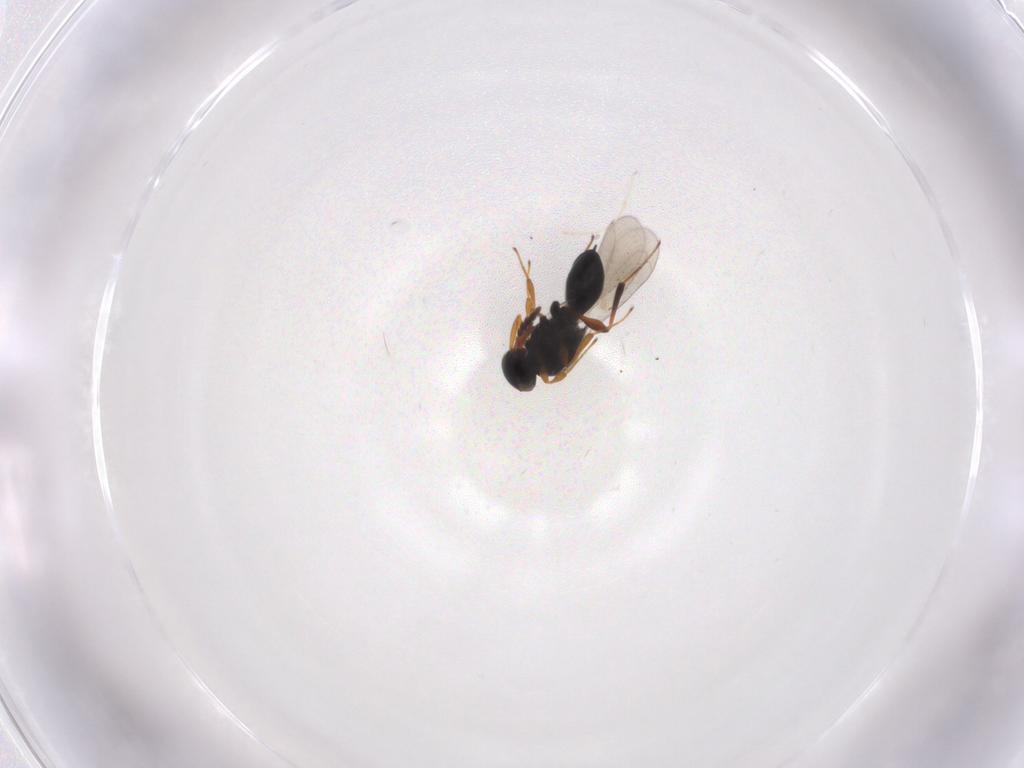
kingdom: Animalia
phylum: Arthropoda
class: Insecta
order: Hymenoptera
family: Platygastridae
